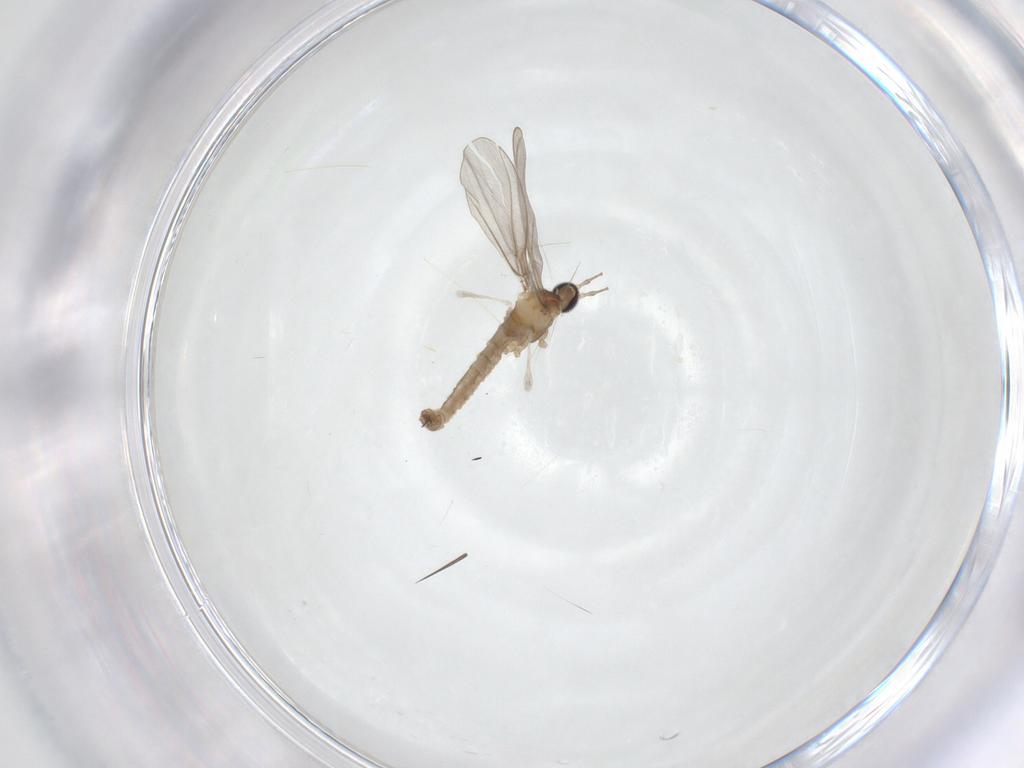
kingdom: Animalia
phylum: Arthropoda
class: Insecta
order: Diptera
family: Cecidomyiidae
